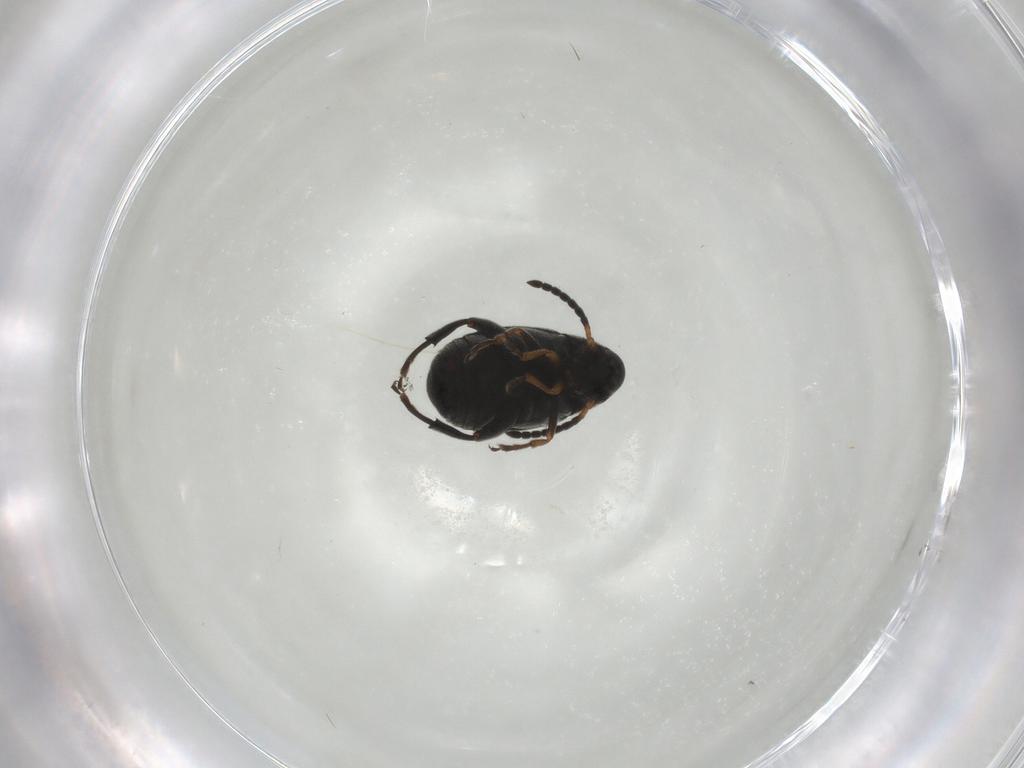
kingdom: Animalia
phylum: Arthropoda
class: Insecta
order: Coleoptera
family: Chrysomelidae
